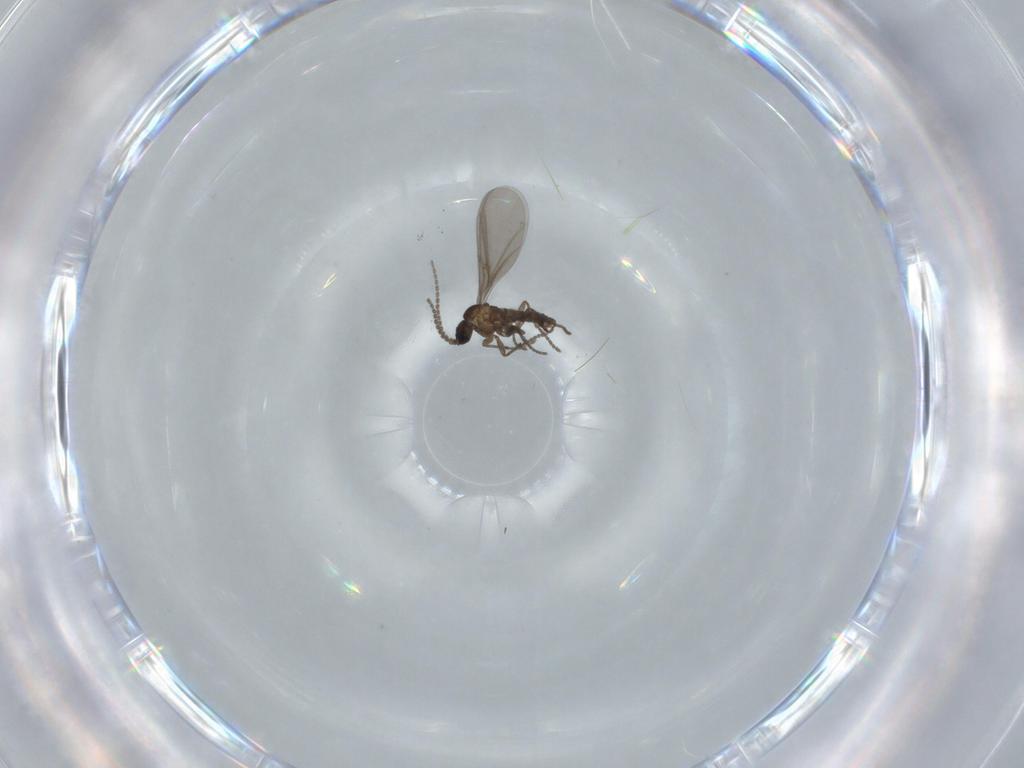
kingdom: Animalia
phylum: Arthropoda
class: Insecta
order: Diptera
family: Sciaridae
